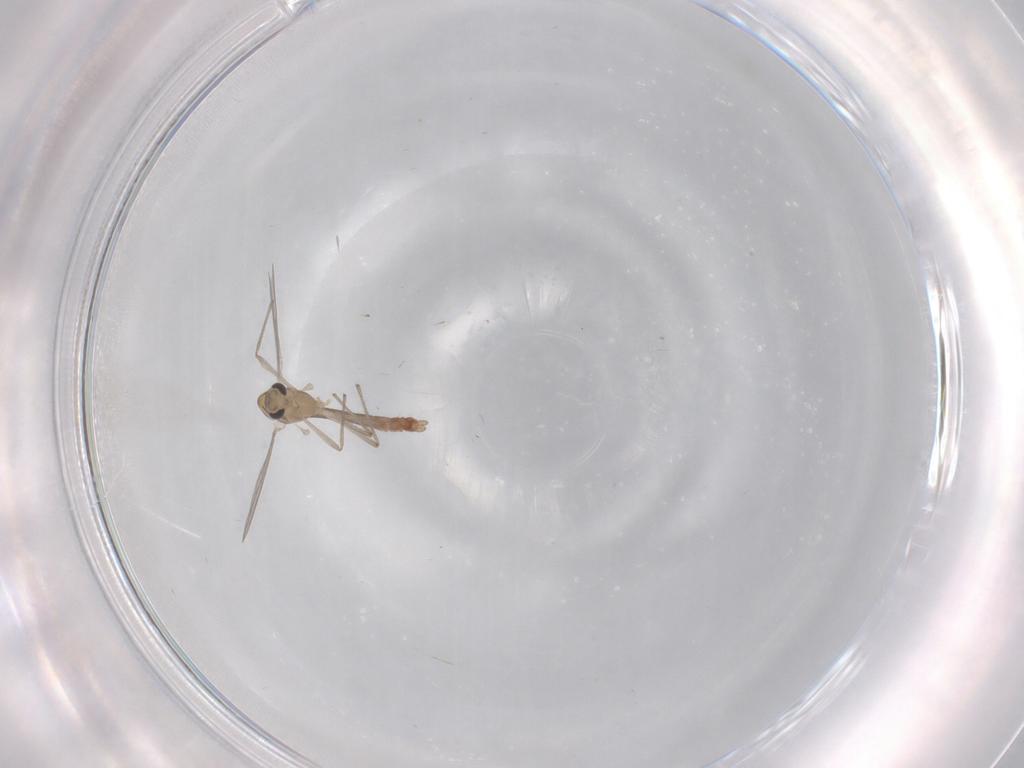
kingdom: Animalia
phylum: Arthropoda
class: Insecta
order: Diptera
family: Chironomidae
